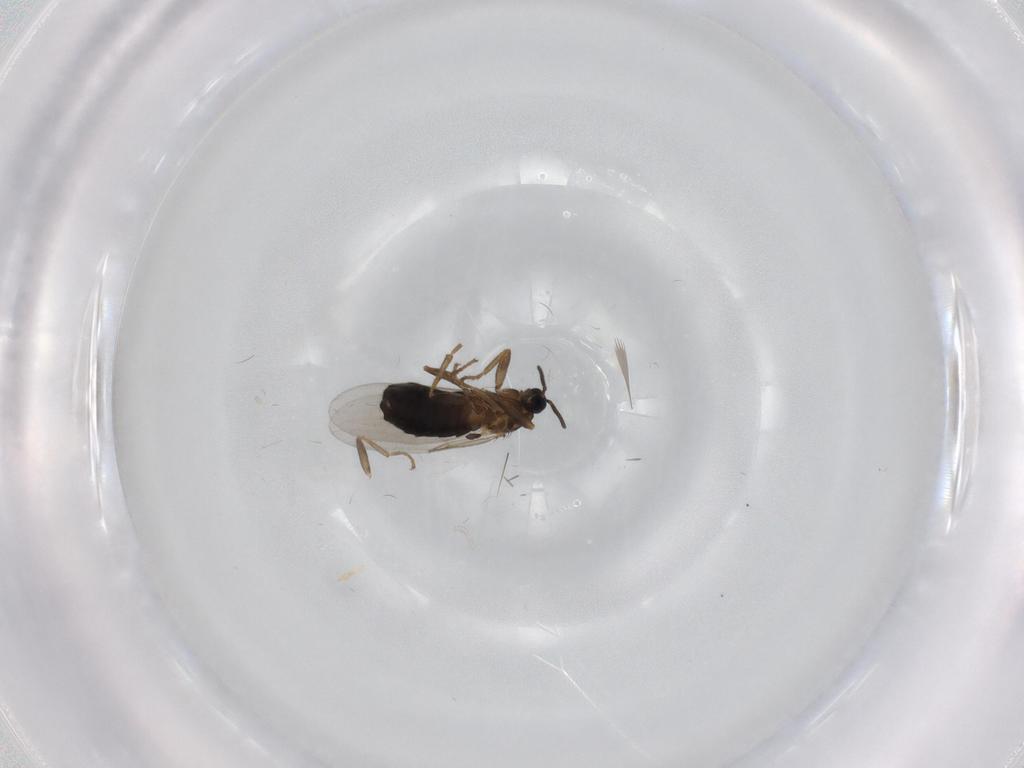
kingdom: Animalia
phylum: Arthropoda
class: Insecta
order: Diptera
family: Scatopsidae
